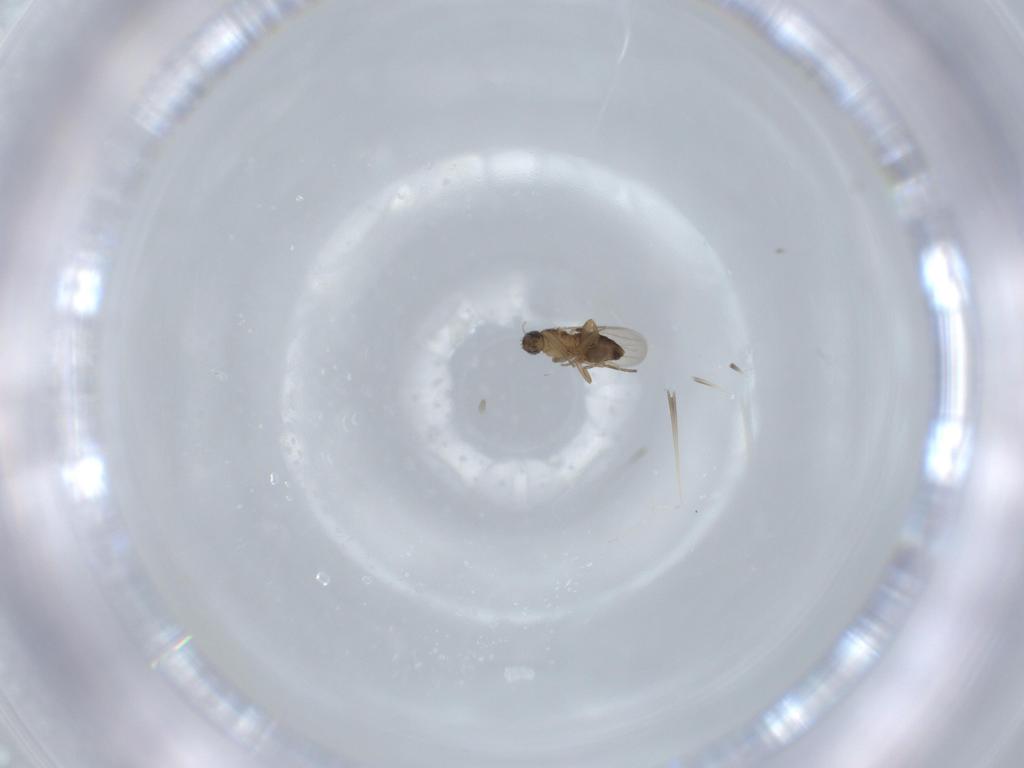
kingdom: Animalia
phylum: Arthropoda
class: Insecta
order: Diptera
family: Phoridae
